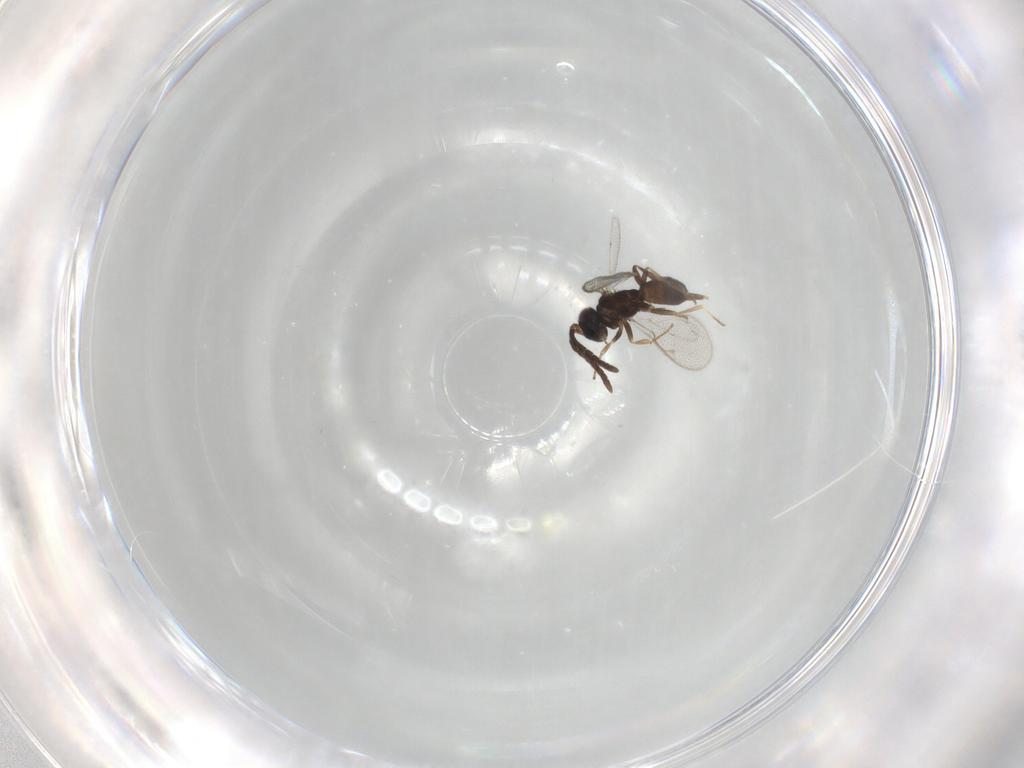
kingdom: Animalia
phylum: Arthropoda
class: Insecta
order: Hymenoptera
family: Eupelmidae
